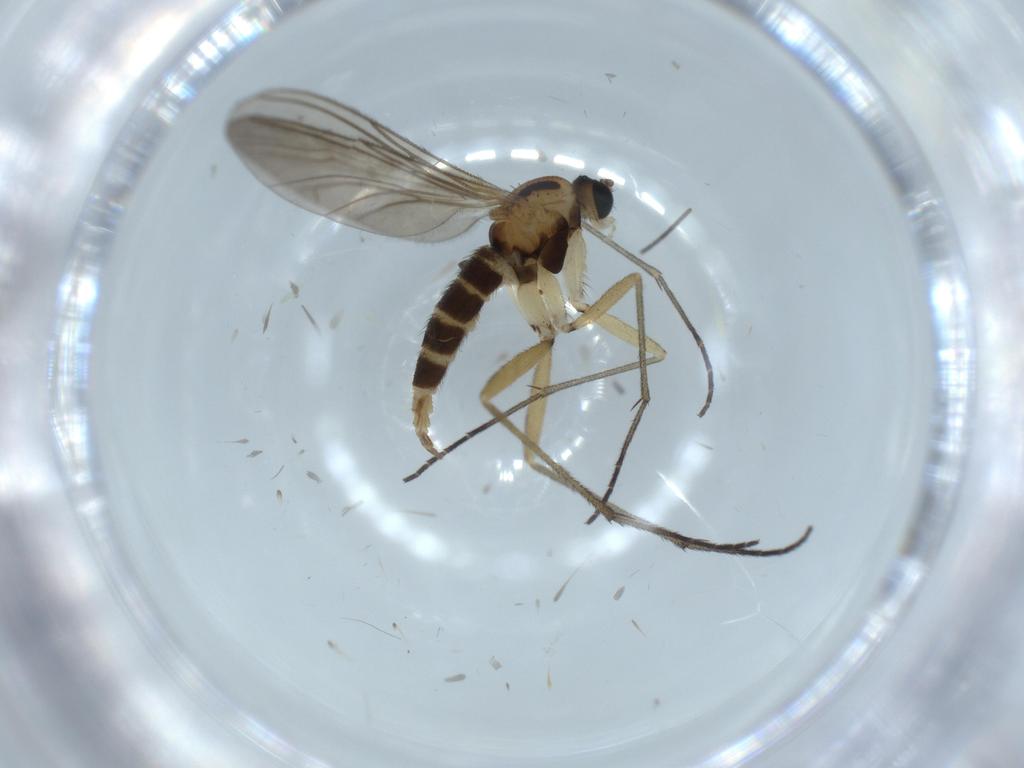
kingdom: Animalia
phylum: Arthropoda
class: Insecta
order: Diptera
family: Sciaridae
